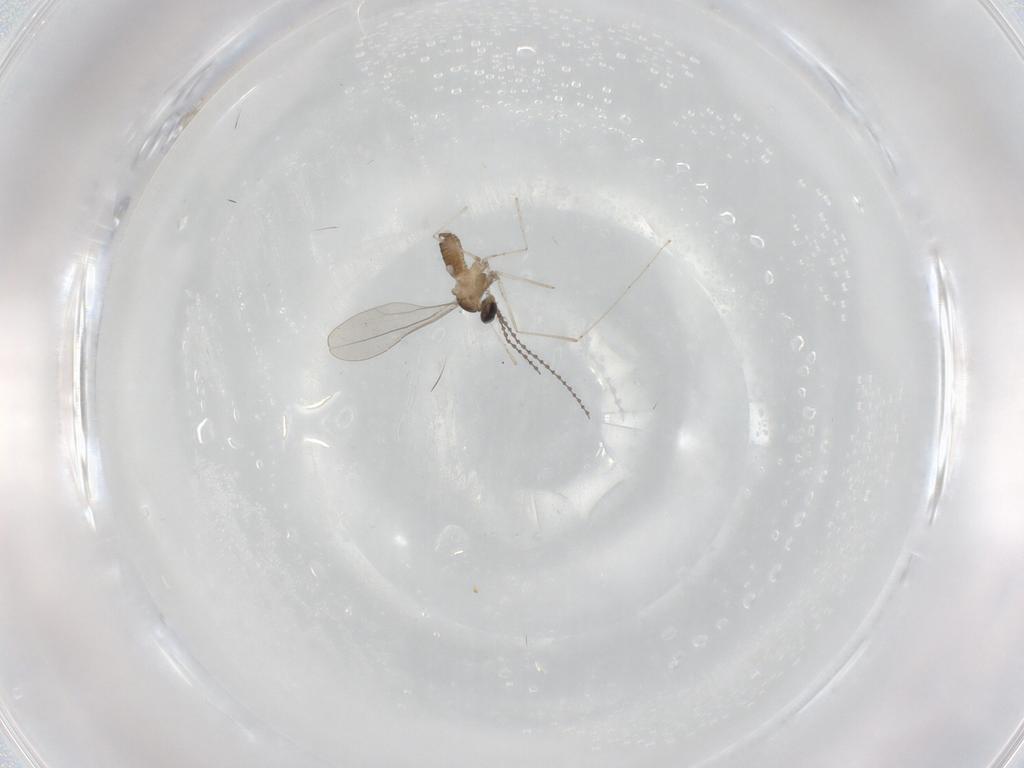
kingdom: Animalia
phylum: Arthropoda
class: Insecta
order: Diptera
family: Cecidomyiidae
